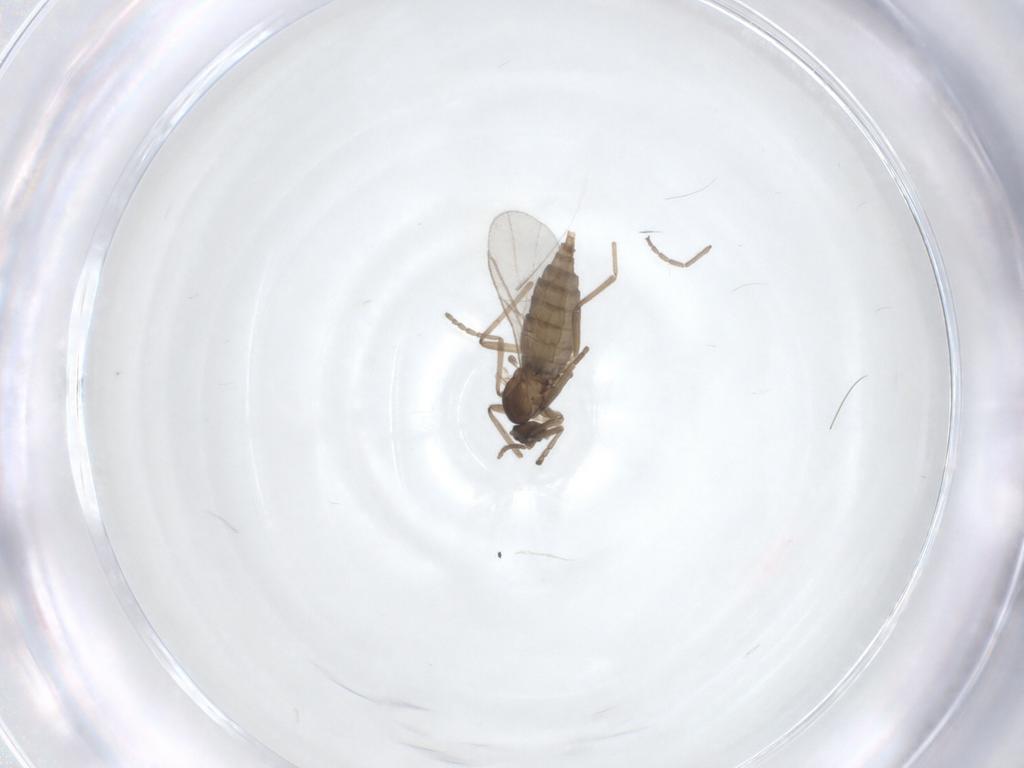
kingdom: Animalia
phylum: Arthropoda
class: Insecta
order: Diptera
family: Cecidomyiidae
